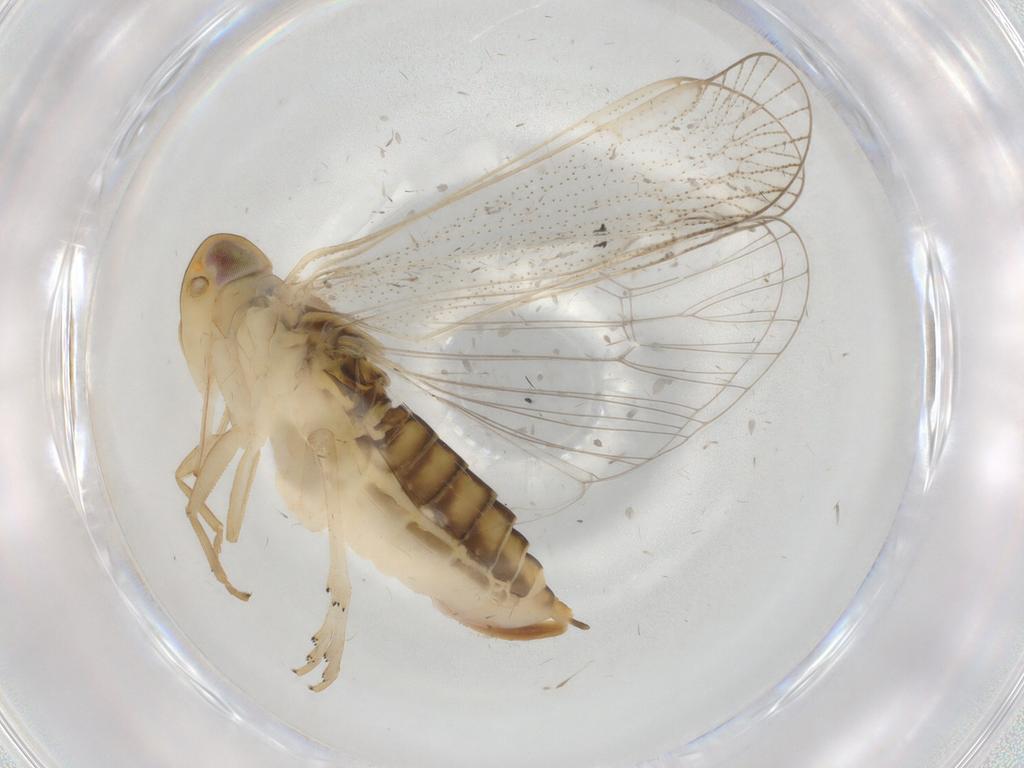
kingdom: Animalia
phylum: Arthropoda
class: Insecta
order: Hemiptera
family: Cixiidae
